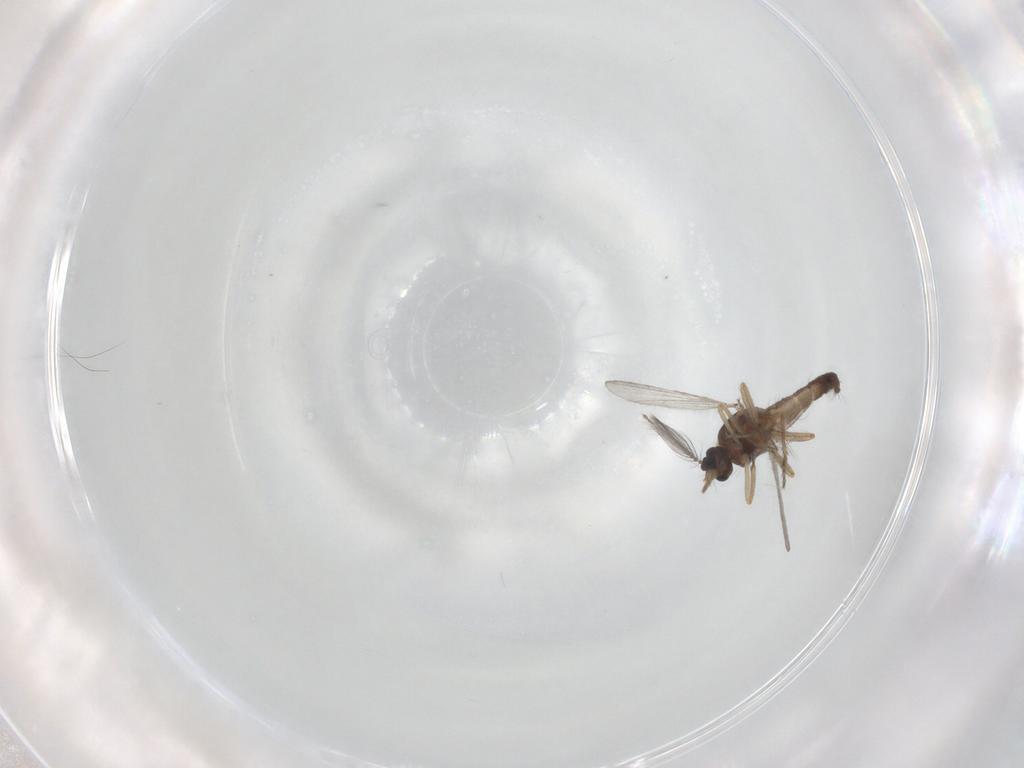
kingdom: Animalia
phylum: Arthropoda
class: Insecta
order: Diptera
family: Ceratopogonidae
